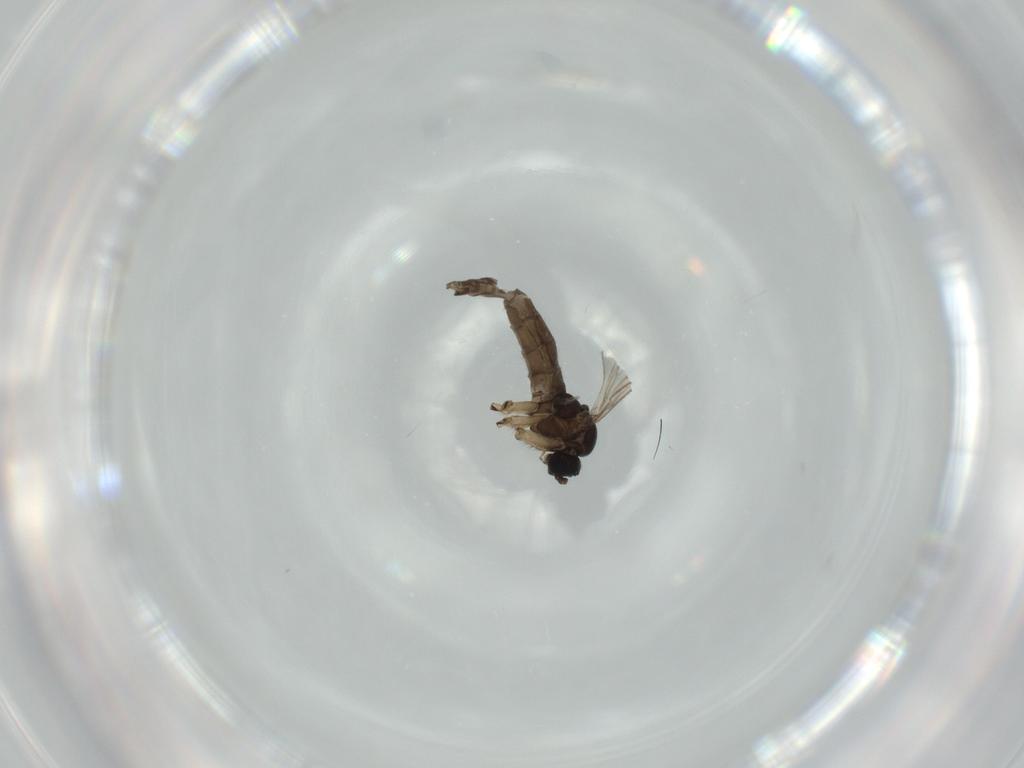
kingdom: Animalia
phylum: Arthropoda
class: Insecta
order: Diptera
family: Sciaridae
